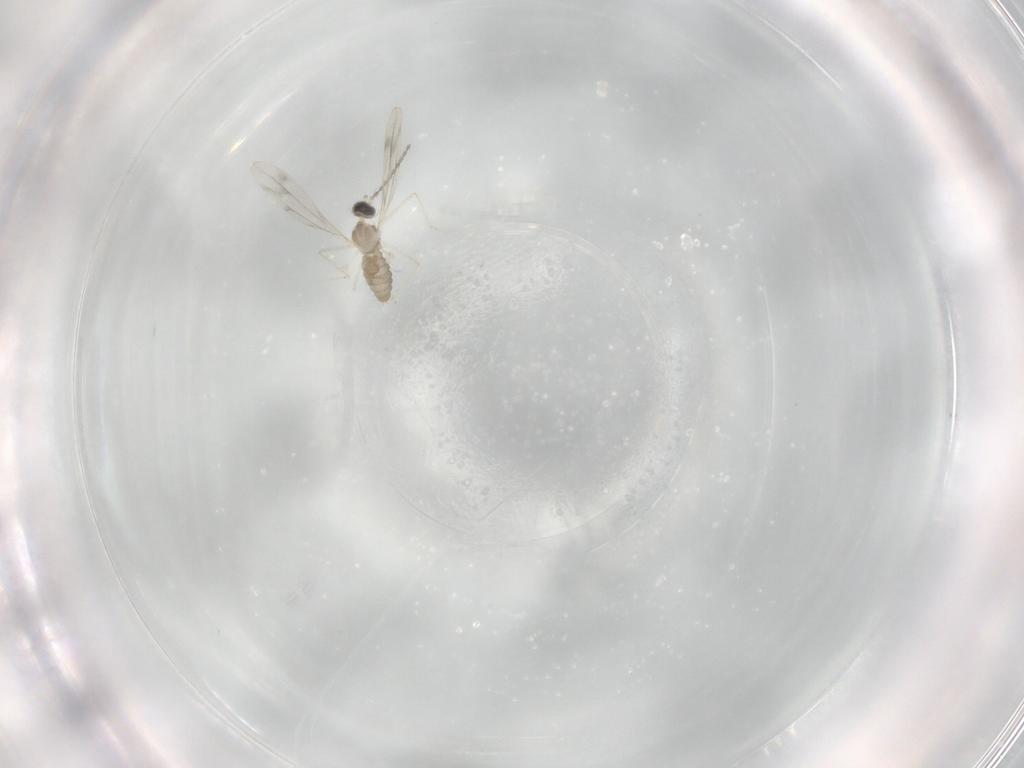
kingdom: Animalia
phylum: Arthropoda
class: Insecta
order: Diptera
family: Cecidomyiidae
